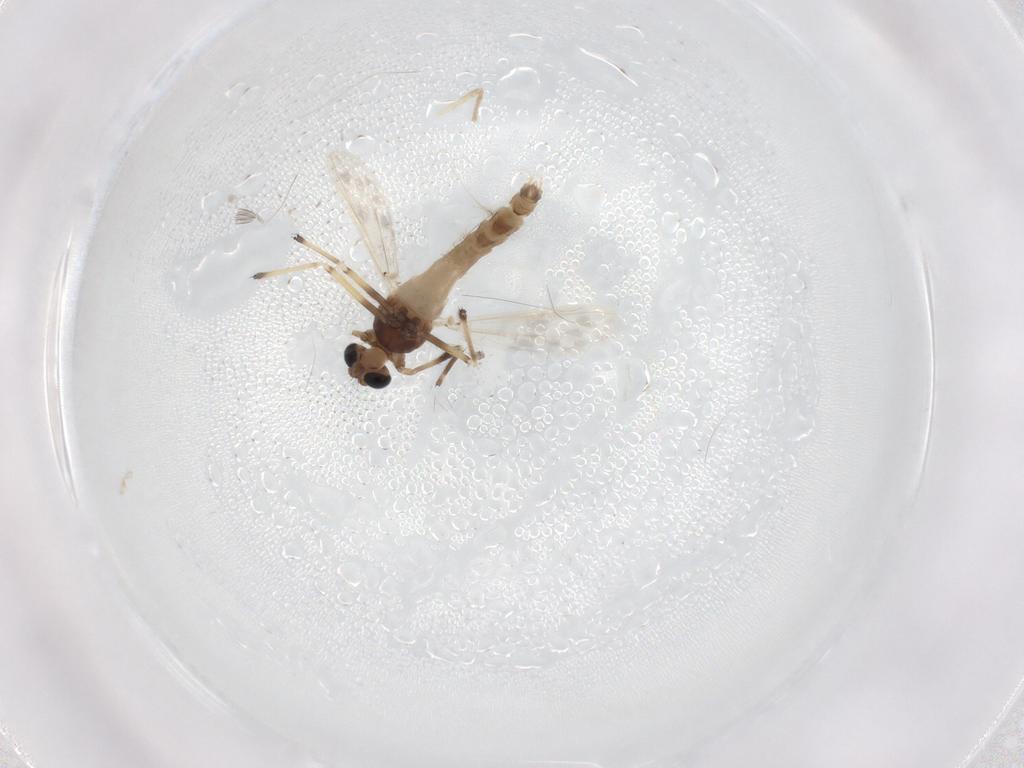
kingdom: Animalia
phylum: Arthropoda
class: Insecta
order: Diptera
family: Chironomidae
